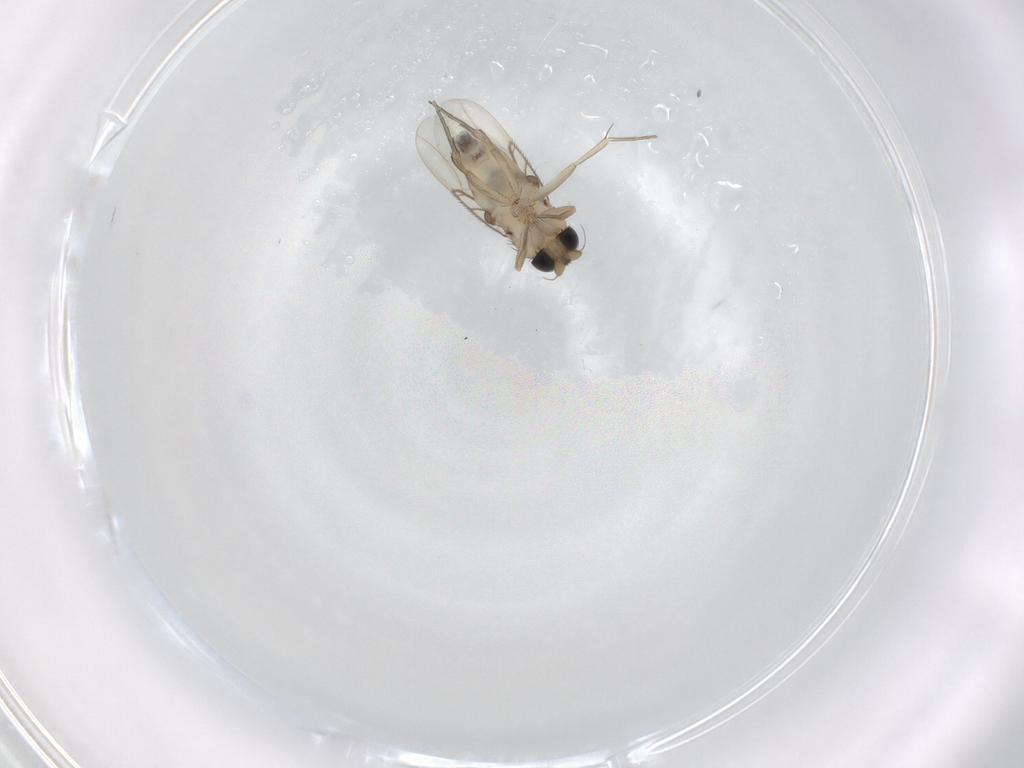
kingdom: Animalia
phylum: Arthropoda
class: Insecta
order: Diptera
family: Phoridae
